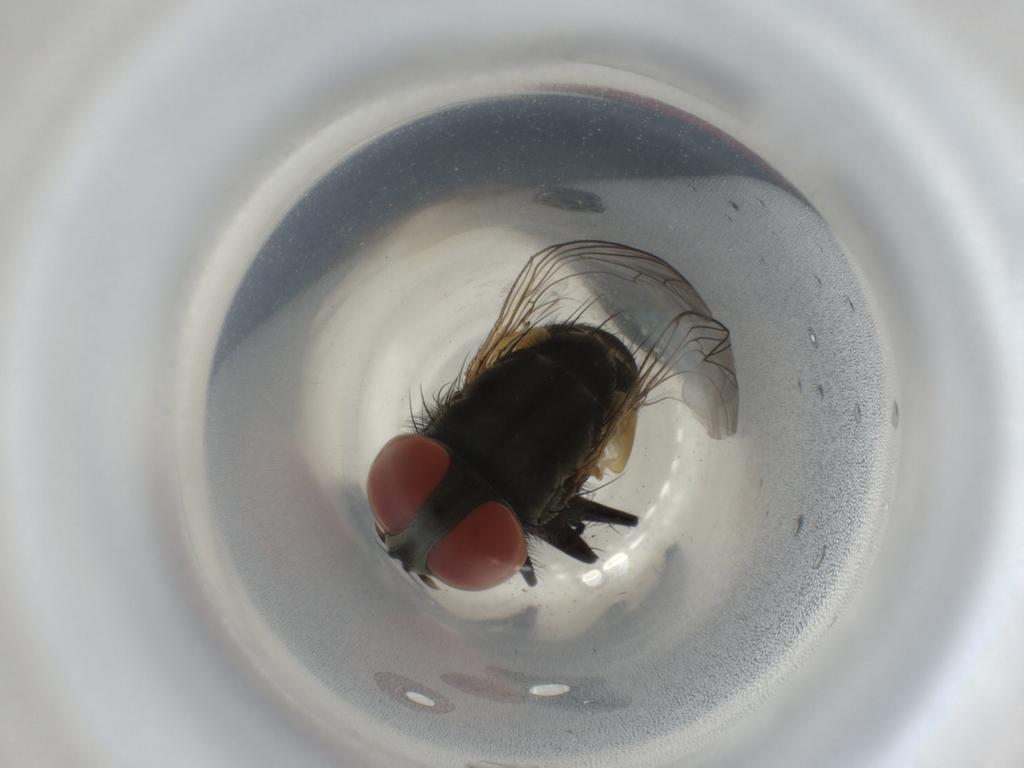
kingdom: Animalia
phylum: Arthropoda
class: Insecta
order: Diptera
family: Sarcophagidae
